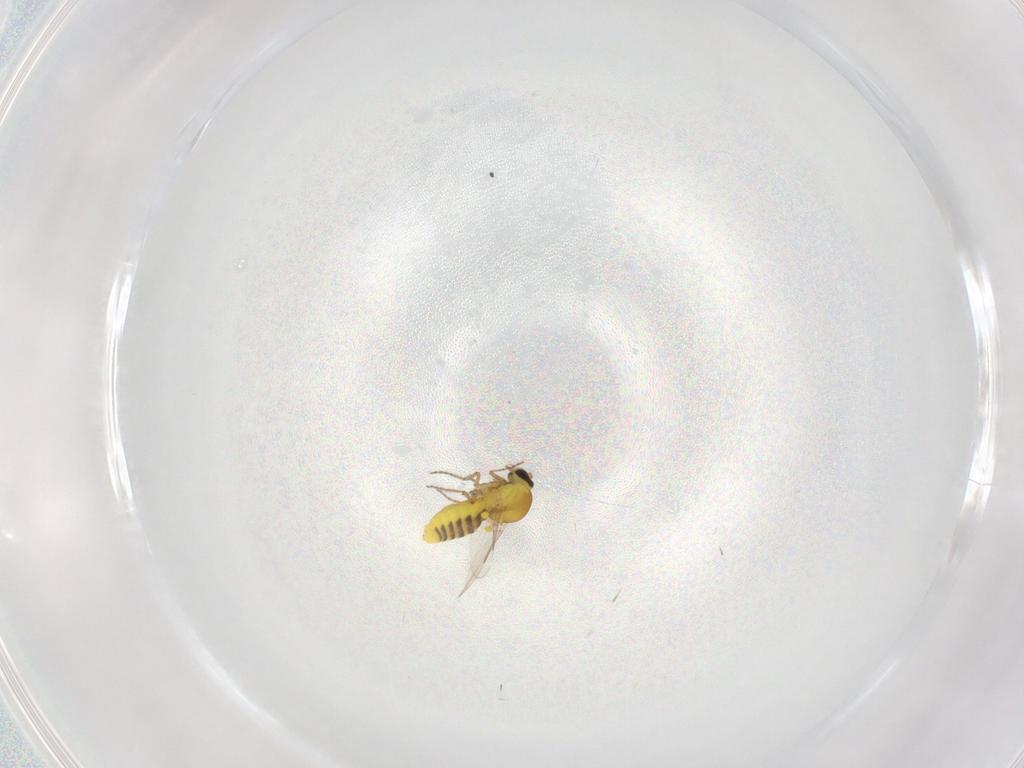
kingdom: Animalia
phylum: Arthropoda
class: Insecta
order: Diptera
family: Ceratopogonidae
